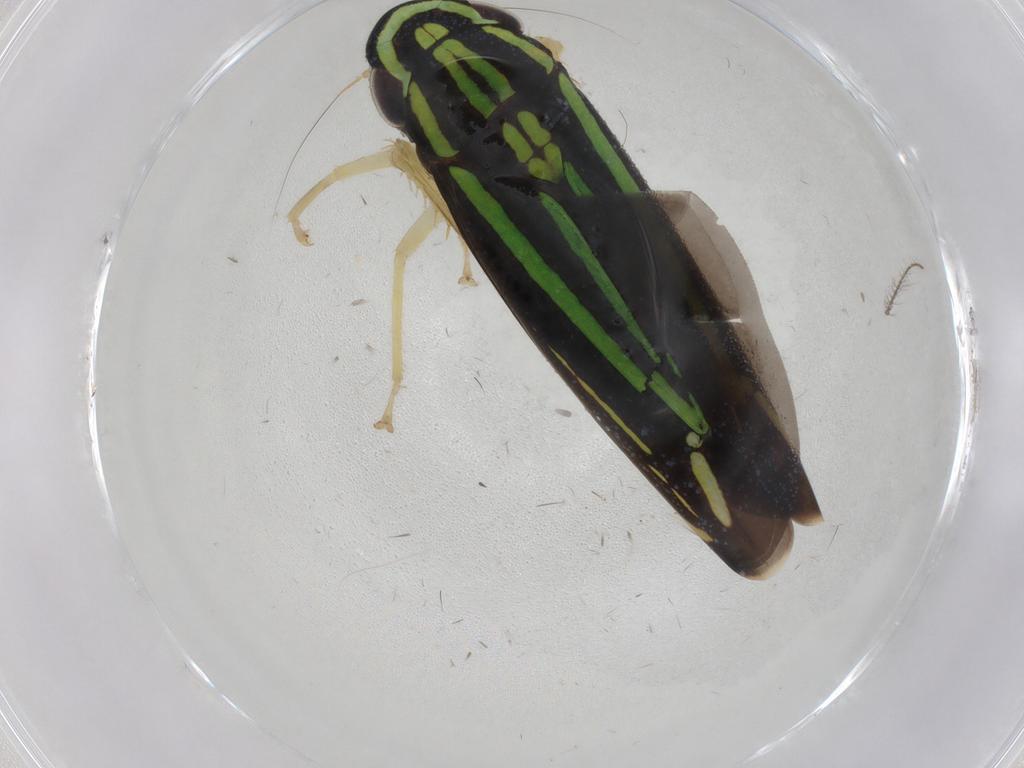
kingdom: Animalia
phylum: Arthropoda
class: Insecta
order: Hemiptera
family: Cicadellidae
